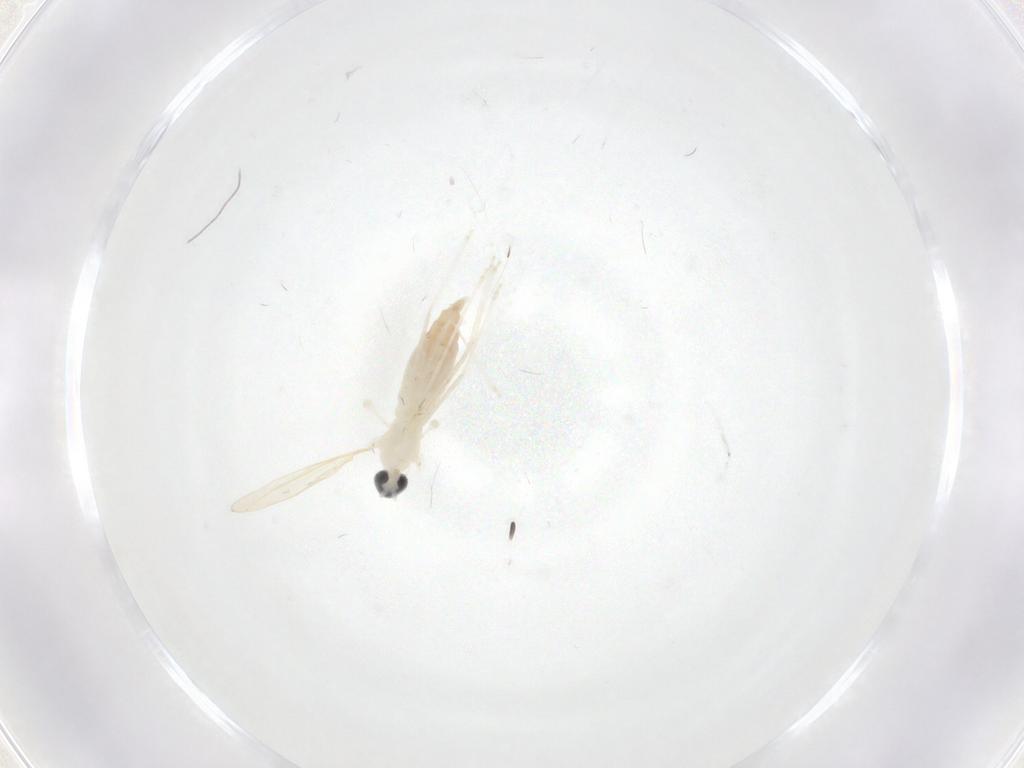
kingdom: Animalia
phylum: Arthropoda
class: Insecta
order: Diptera
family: Cecidomyiidae
